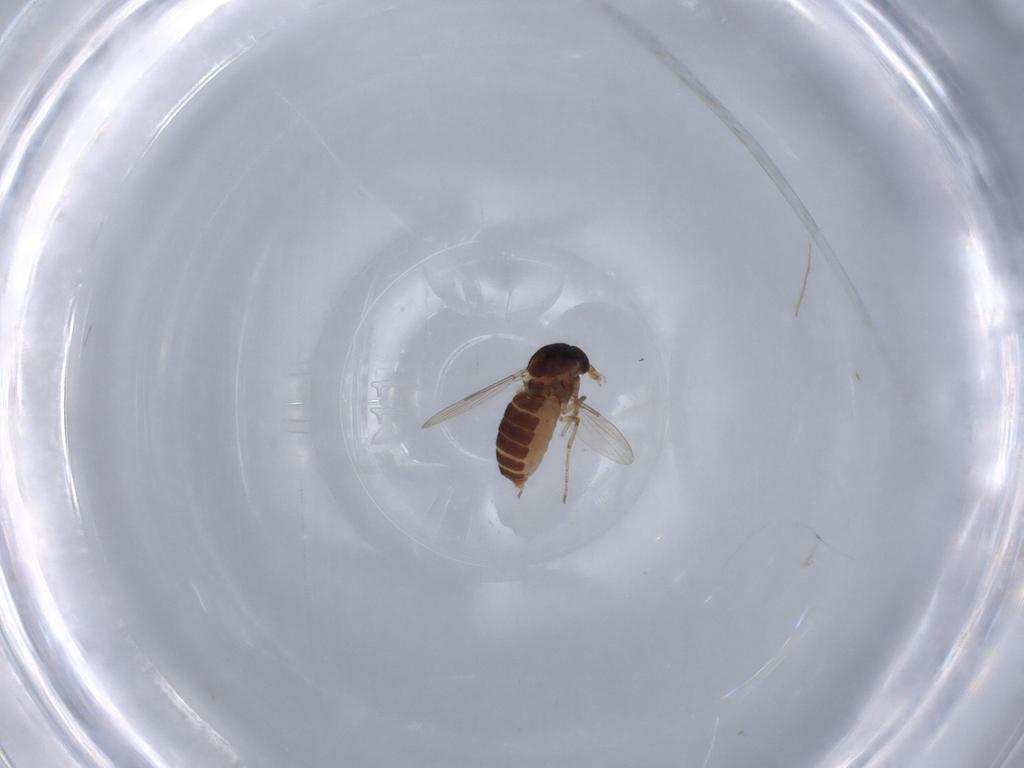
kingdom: Animalia
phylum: Arthropoda
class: Insecta
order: Diptera
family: Ceratopogonidae
